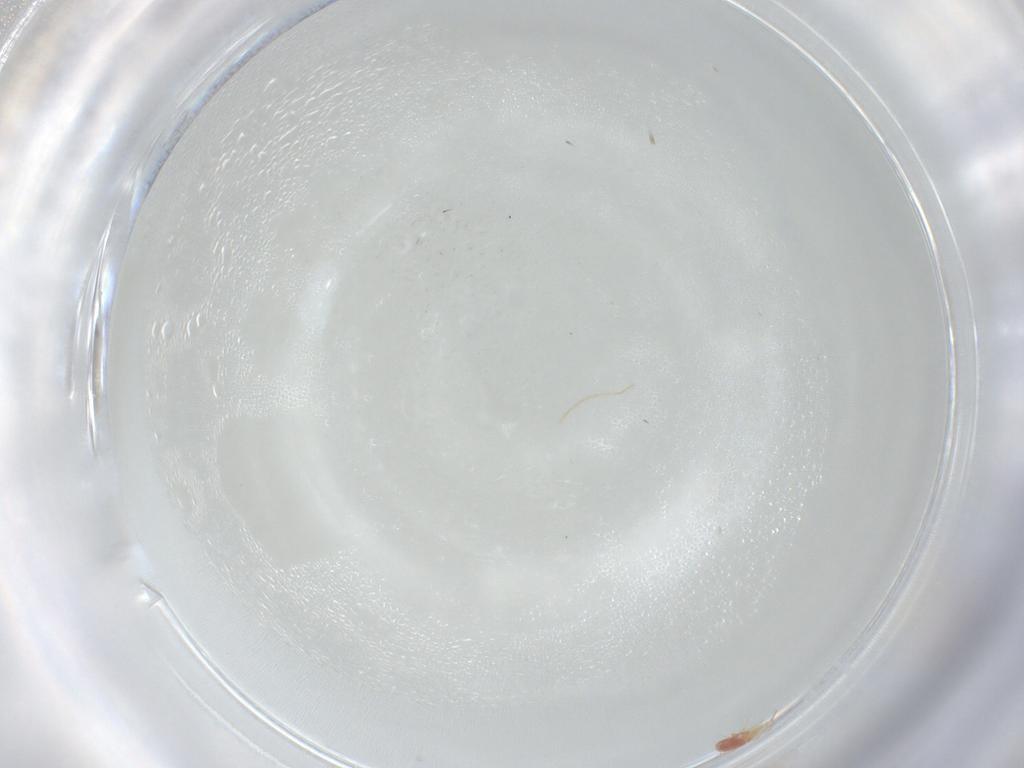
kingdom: Animalia
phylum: Arthropoda
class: Arachnida
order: Mesostigmata
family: Phytoseiidae
